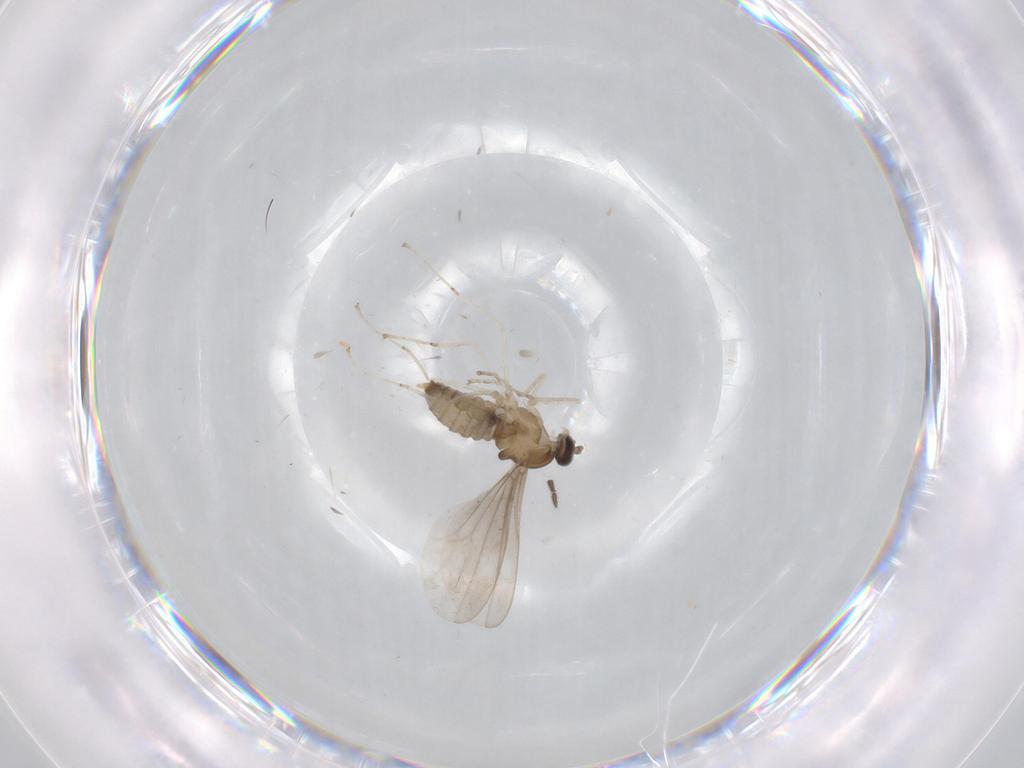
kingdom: Animalia
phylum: Arthropoda
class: Insecta
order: Diptera
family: Cecidomyiidae
